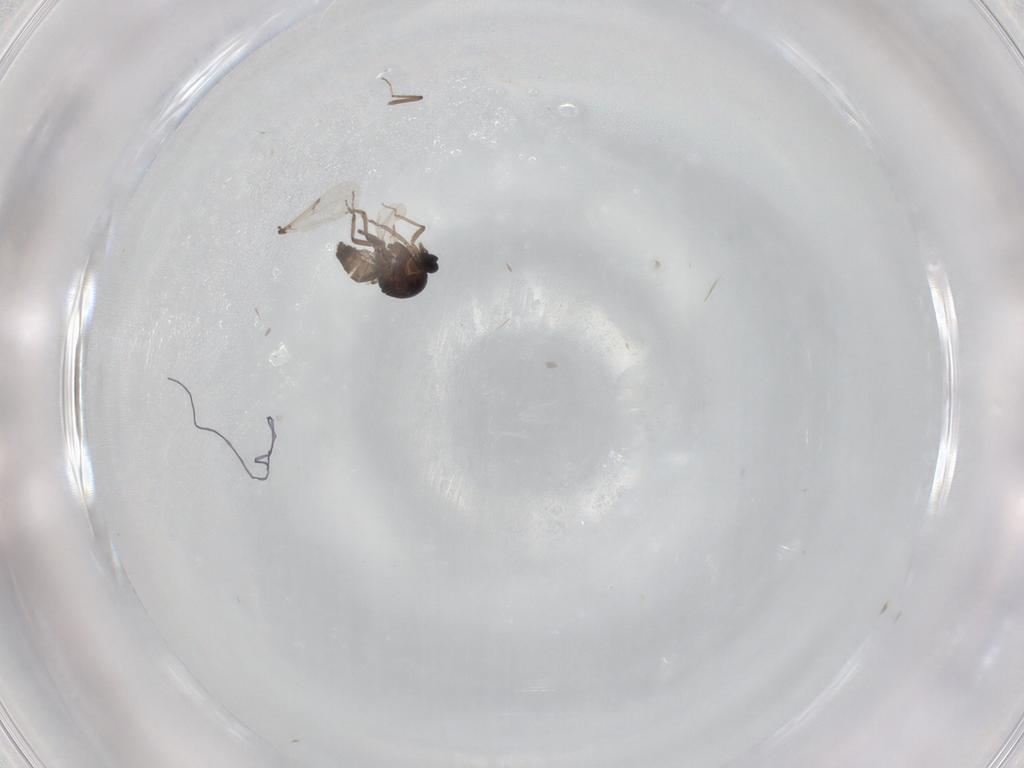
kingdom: Animalia
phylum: Arthropoda
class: Insecta
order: Diptera
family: Ceratopogonidae
